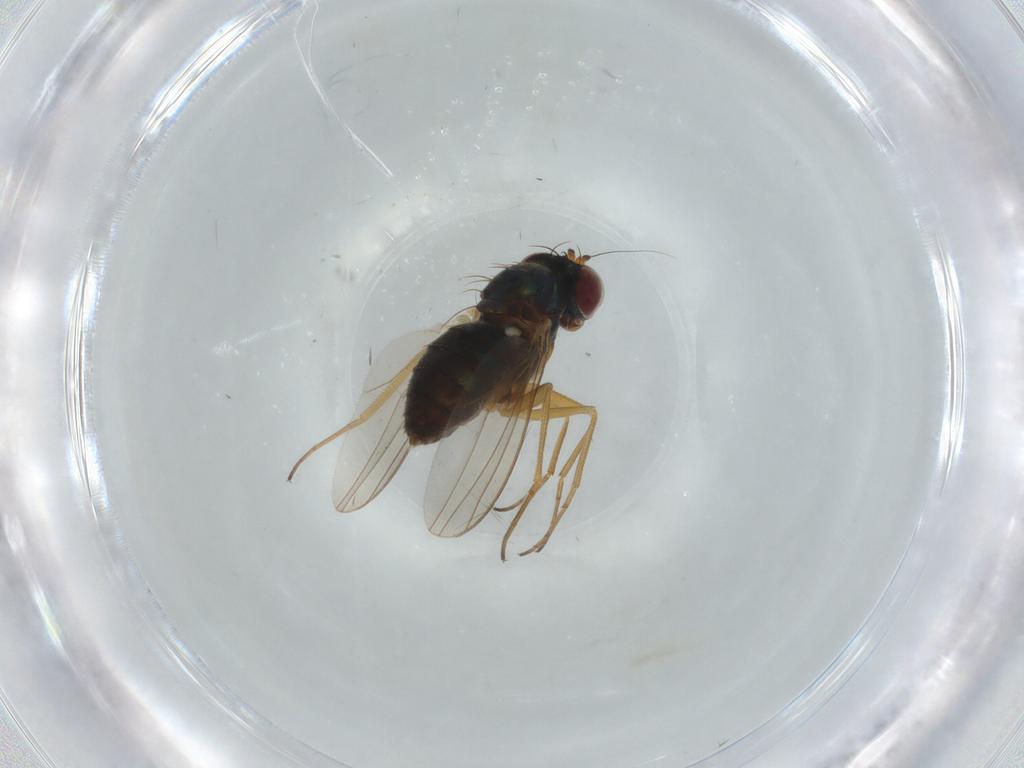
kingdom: Animalia
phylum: Arthropoda
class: Insecta
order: Diptera
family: Dolichopodidae
